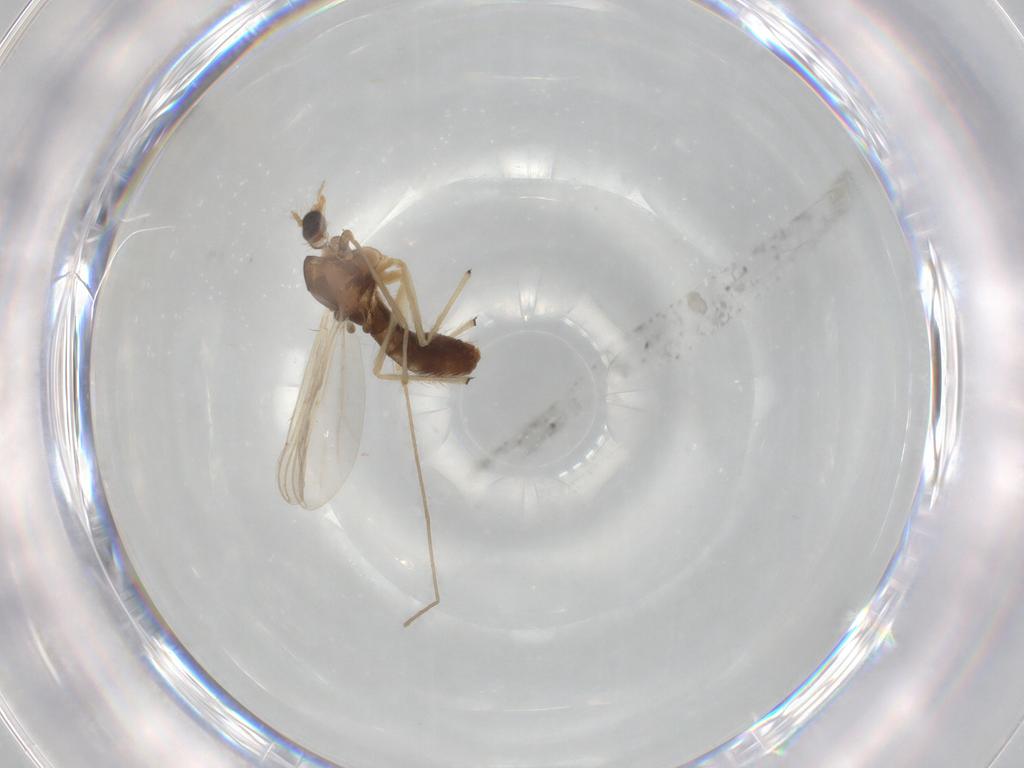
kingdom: Animalia
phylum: Arthropoda
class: Insecta
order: Diptera
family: Chironomidae
